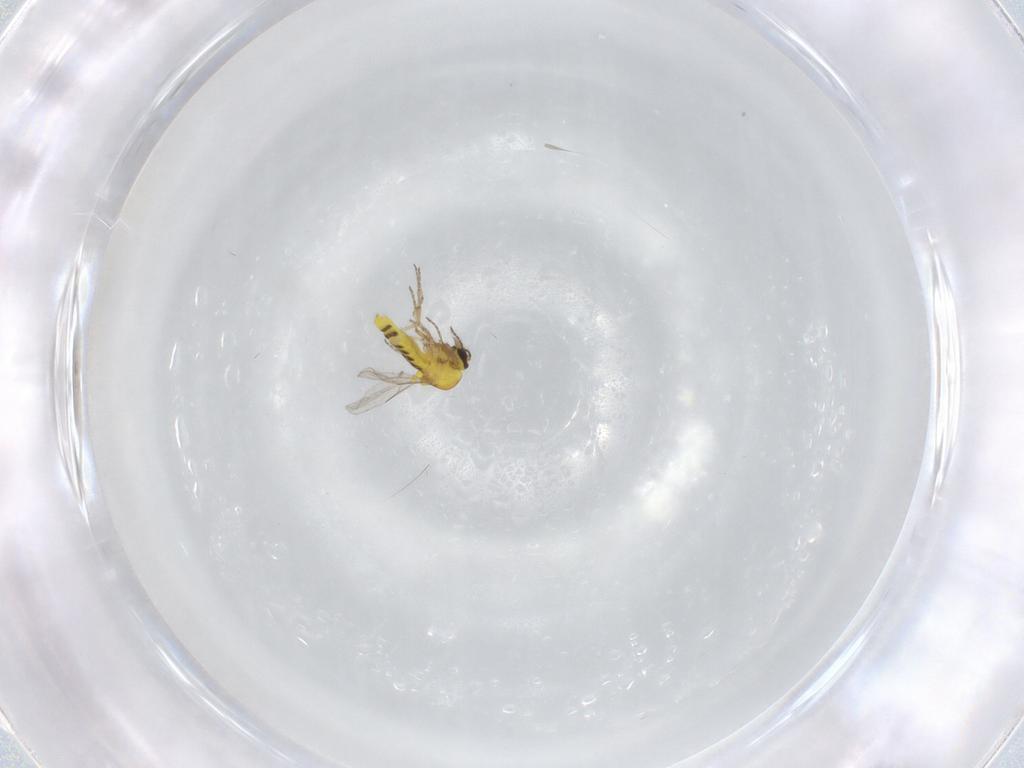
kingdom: Animalia
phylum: Arthropoda
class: Insecta
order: Diptera
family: Ceratopogonidae
